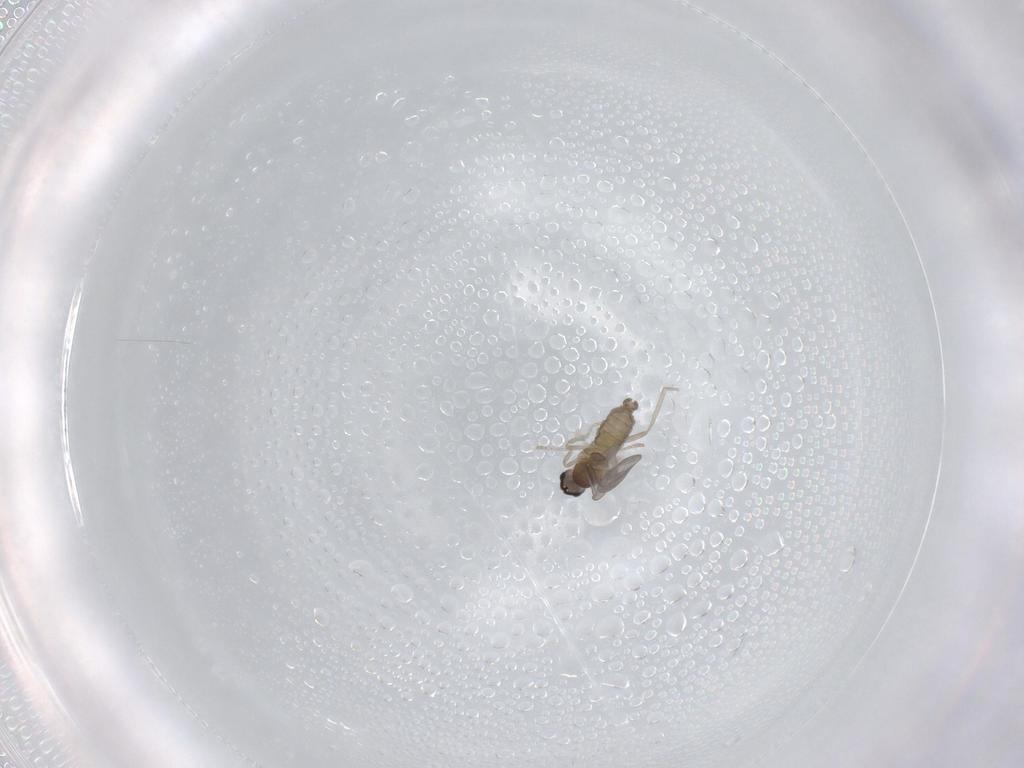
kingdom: Animalia
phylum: Arthropoda
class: Insecta
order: Diptera
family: Cecidomyiidae
